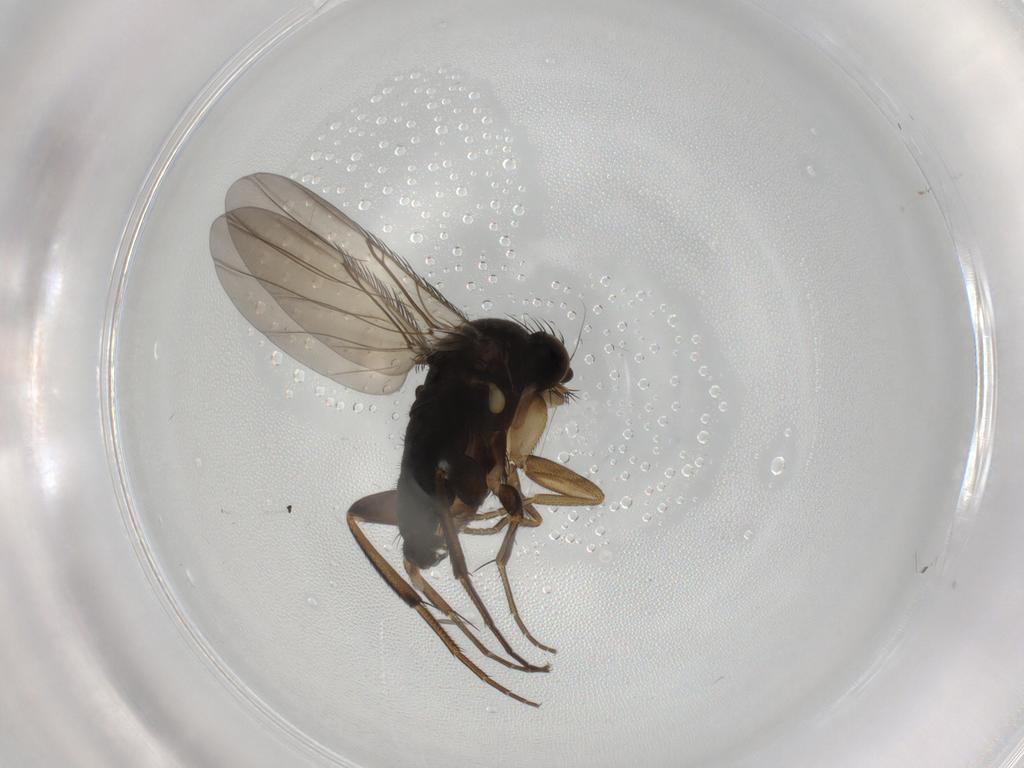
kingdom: Animalia
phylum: Arthropoda
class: Insecta
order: Diptera
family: Phoridae
